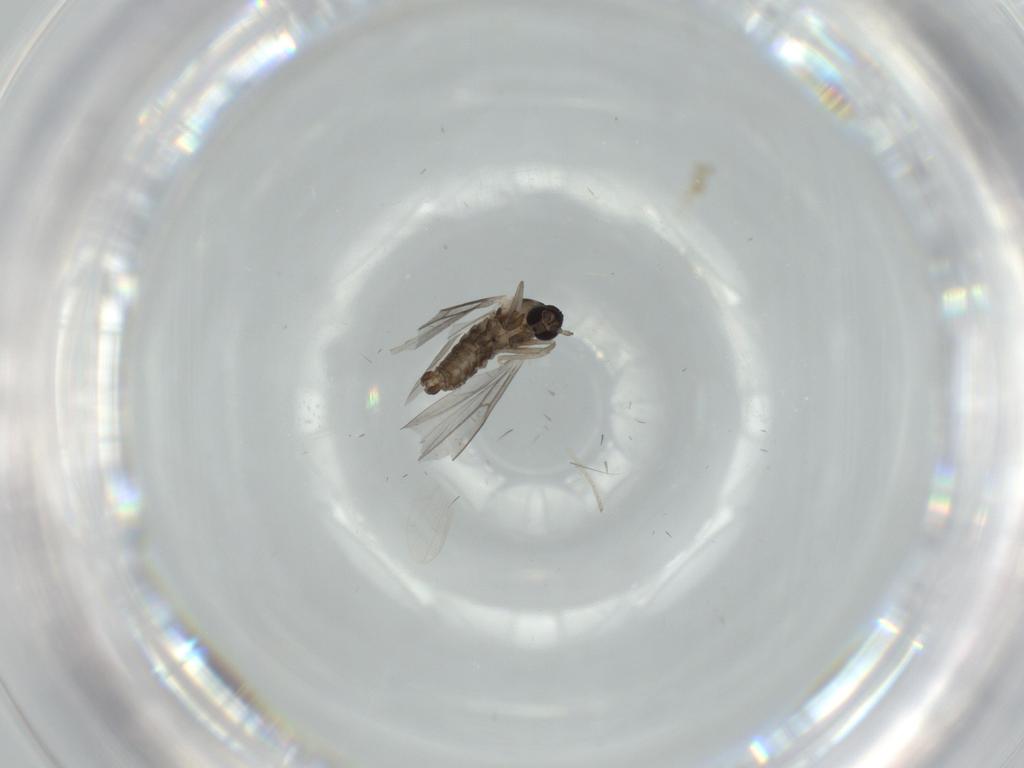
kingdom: Animalia
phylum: Arthropoda
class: Insecta
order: Diptera
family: Cecidomyiidae
